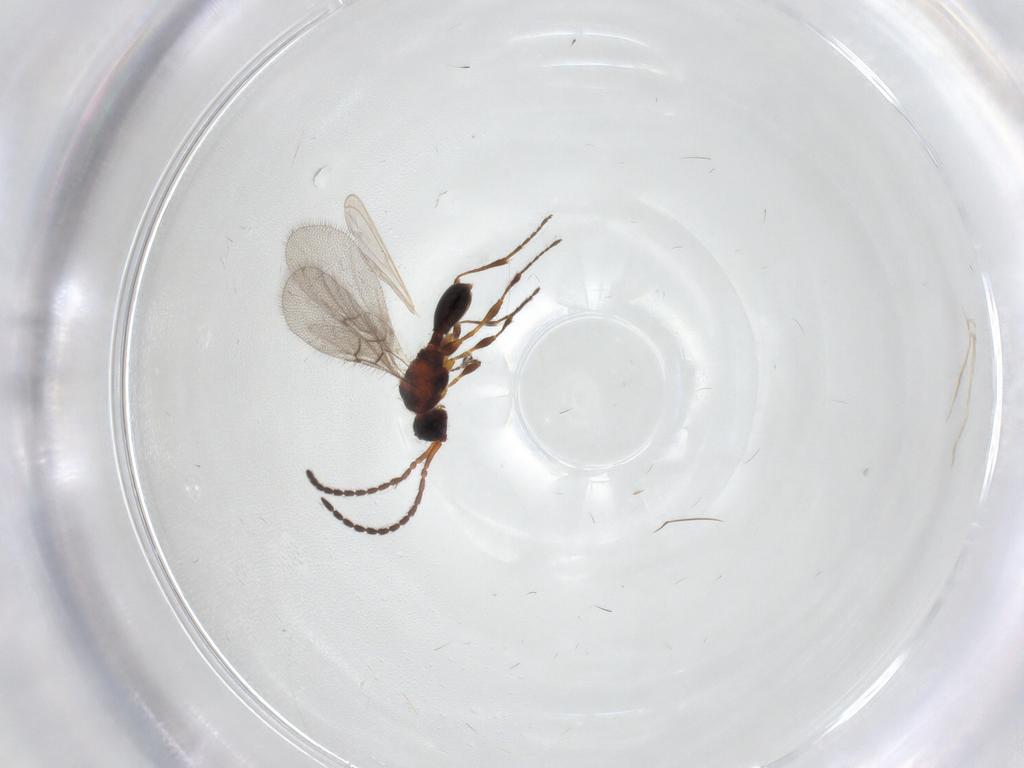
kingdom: Animalia
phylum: Arthropoda
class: Insecta
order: Hymenoptera
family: Diapriidae
